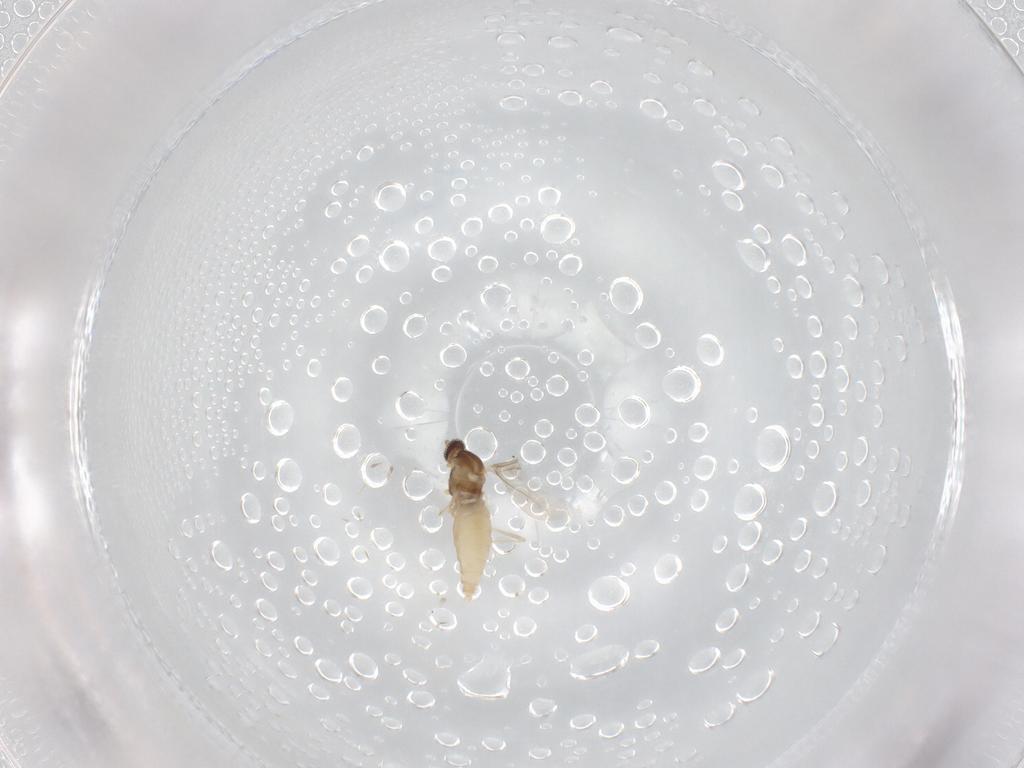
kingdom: Animalia
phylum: Arthropoda
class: Insecta
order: Diptera
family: Cecidomyiidae
